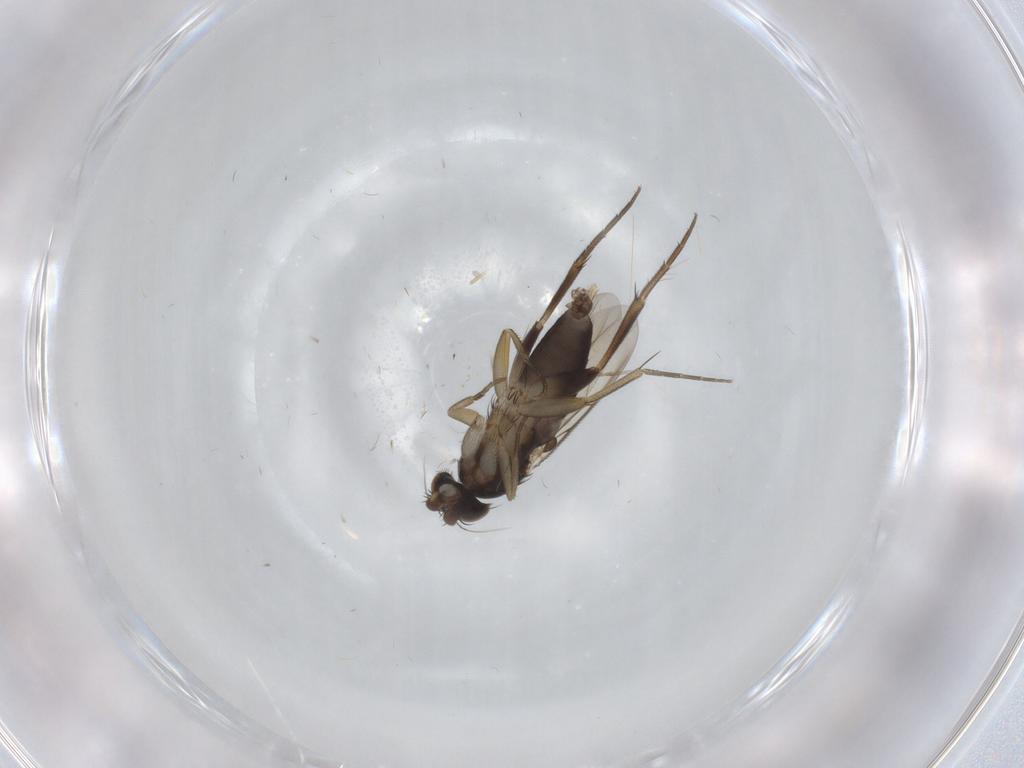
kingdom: Animalia
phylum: Arthropoda
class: Insecta
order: Diptera
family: Phoridae
